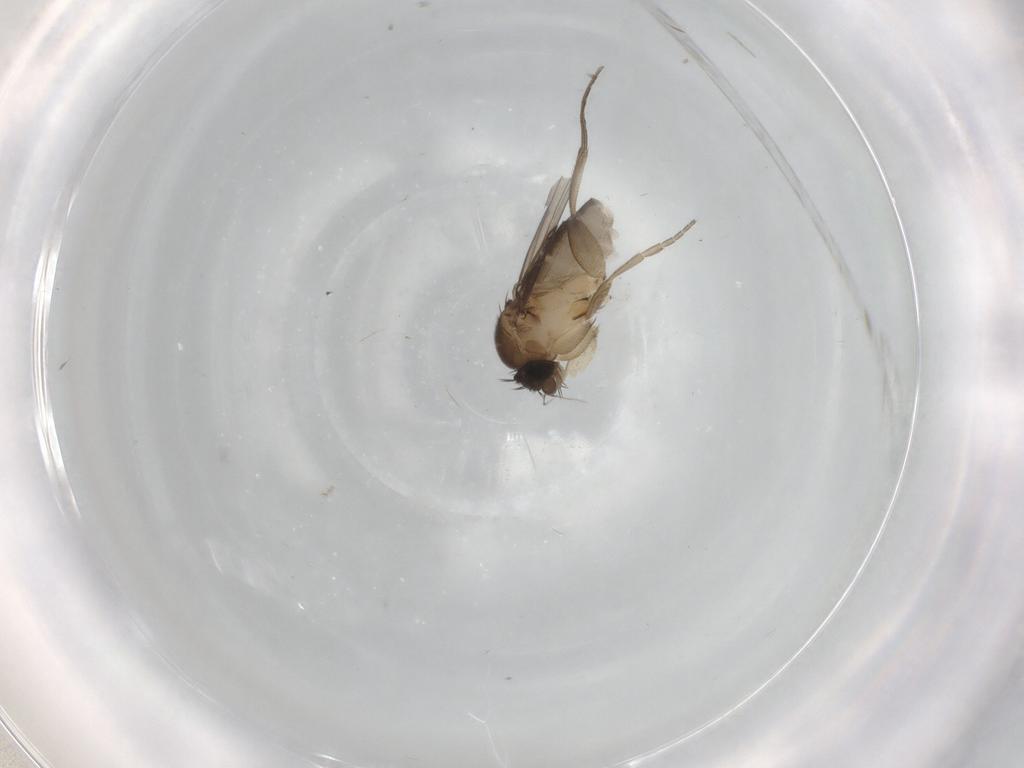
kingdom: Animalia
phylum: Arthropoda
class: Insecta
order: Diptera
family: Phoridae
